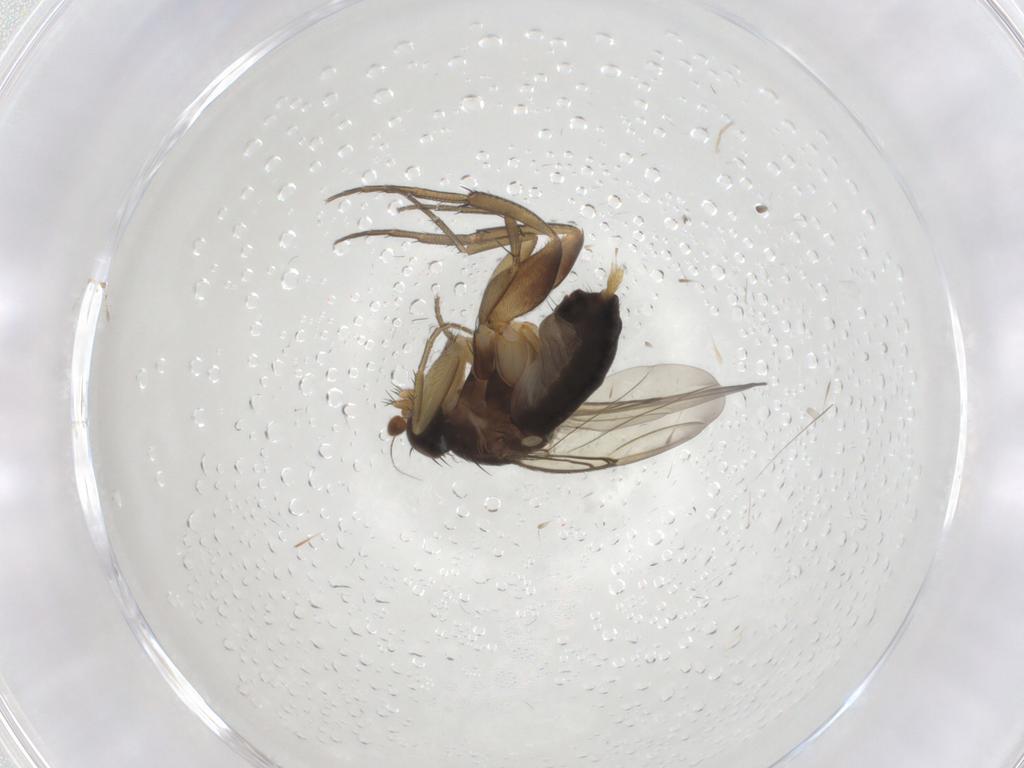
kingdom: Animalia
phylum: Arthropoda
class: Insecta
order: Diptera
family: Phoridae
